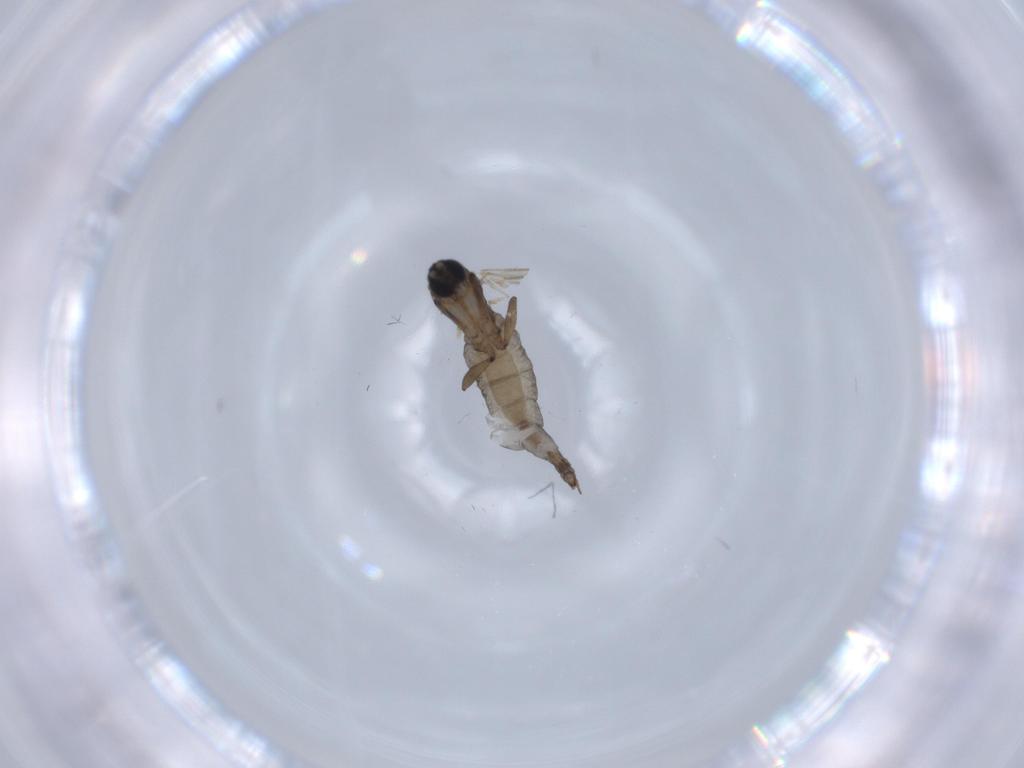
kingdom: Animalia
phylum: Arthropoda
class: Insecta
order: Diptera
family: Sciaridae
